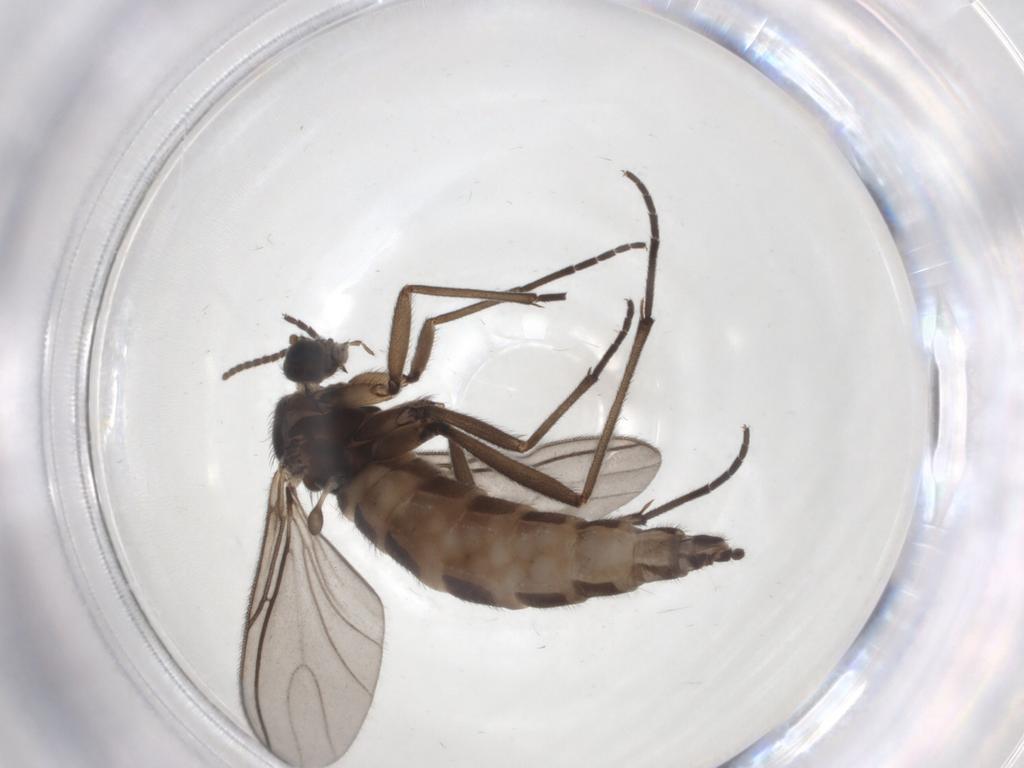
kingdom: Animalia
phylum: Arthropoda
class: Insecta
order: Diptera
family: Sciaridae
